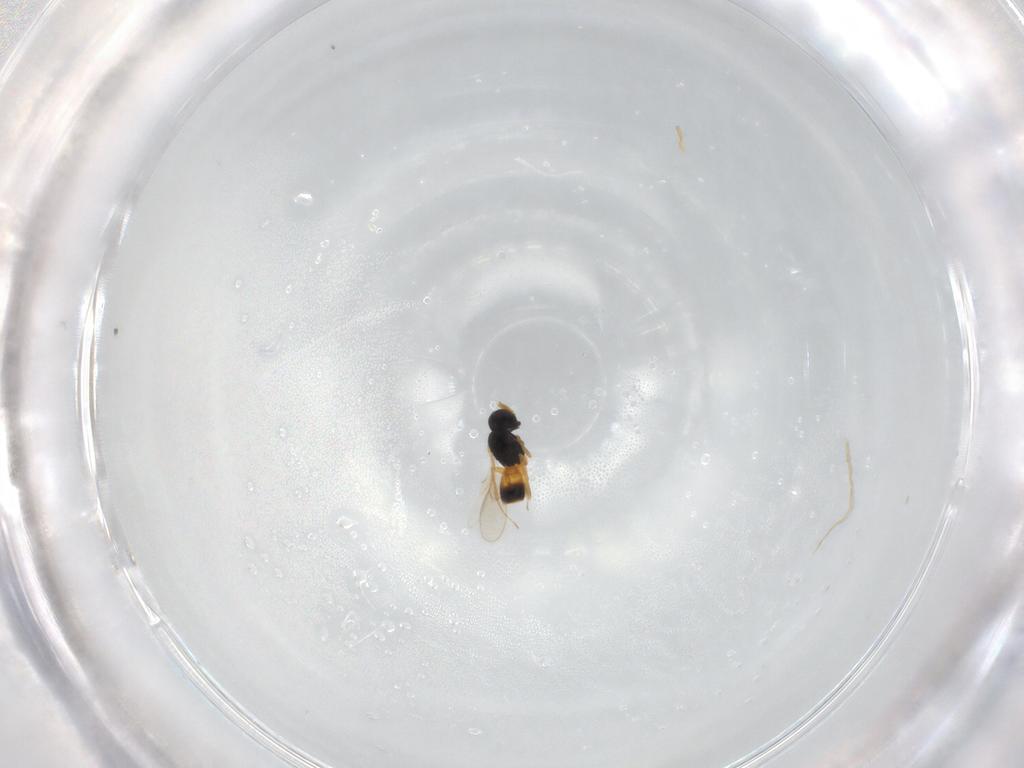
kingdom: Animalia
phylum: Arthropoda
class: Insecta
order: Hymenoptera
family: Scelionidae
